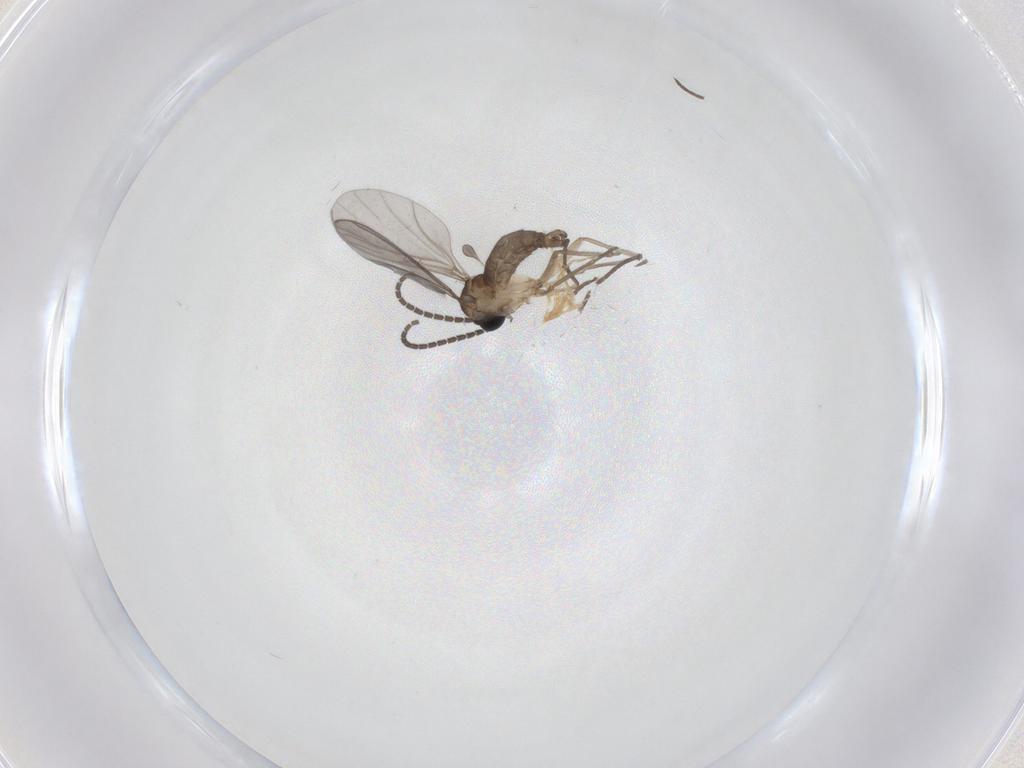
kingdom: Animalia
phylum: Arthropoda
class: Insecta
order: Diptera
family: Sciaridae
